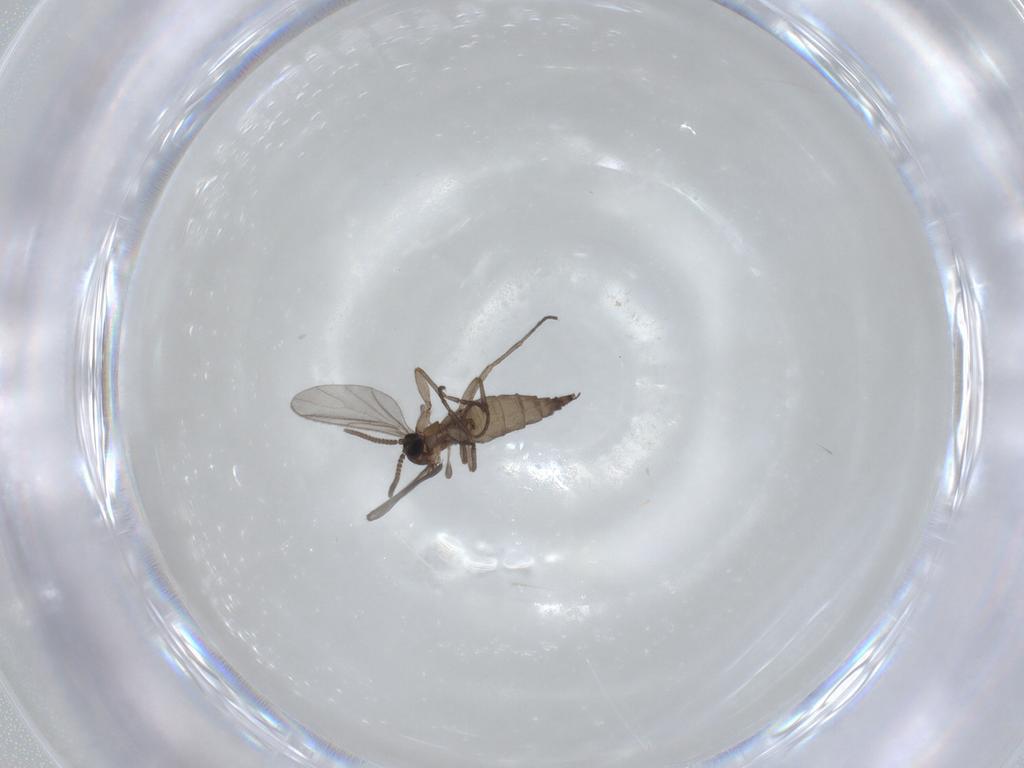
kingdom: Animalia
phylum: Arthropoda
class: Insecta
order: Diptera
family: Sciaridae
